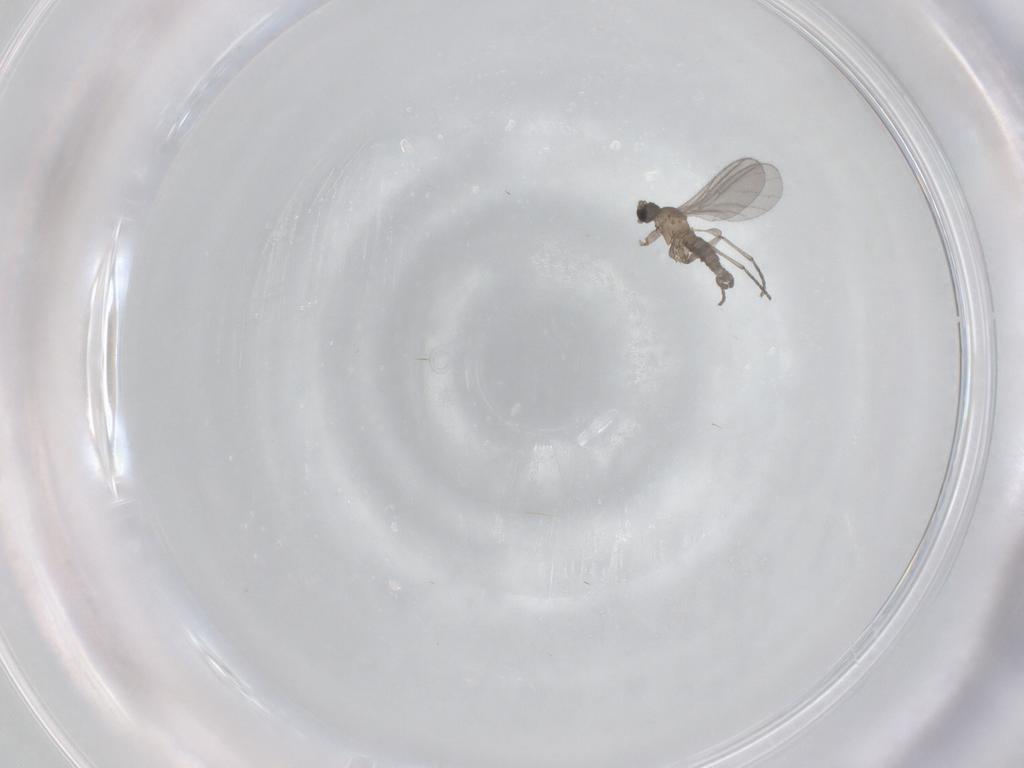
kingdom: Animalia
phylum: Arthropoda
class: Insecta
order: Diptera
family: Sciaridae
